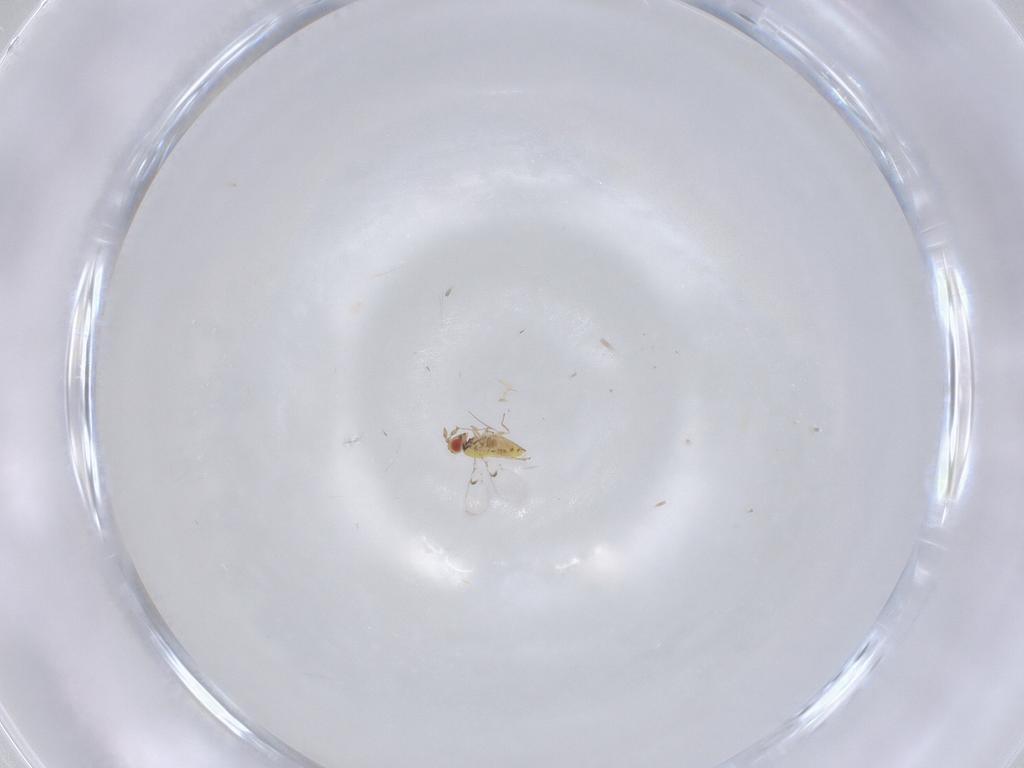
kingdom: Animalia
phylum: Arthropoda
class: Insecta
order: Hymenoptera
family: Trichogrammatidae
